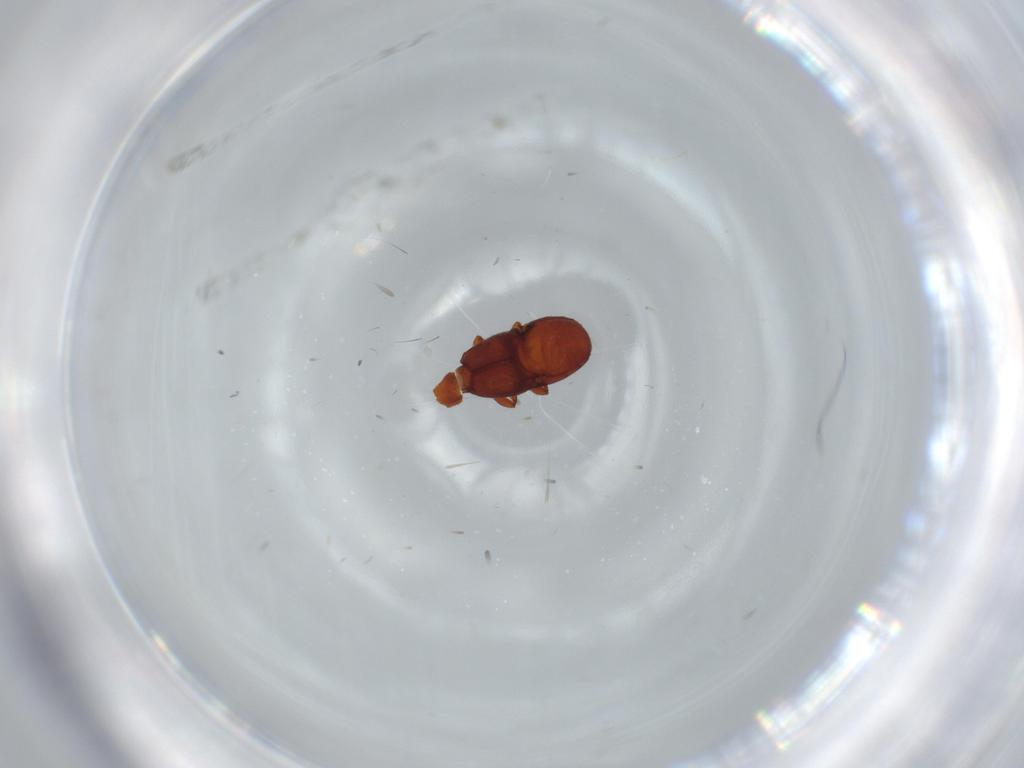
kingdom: Animalia
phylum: Arthropoda
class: Insecta
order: Coleoptera
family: Staphylinidae
